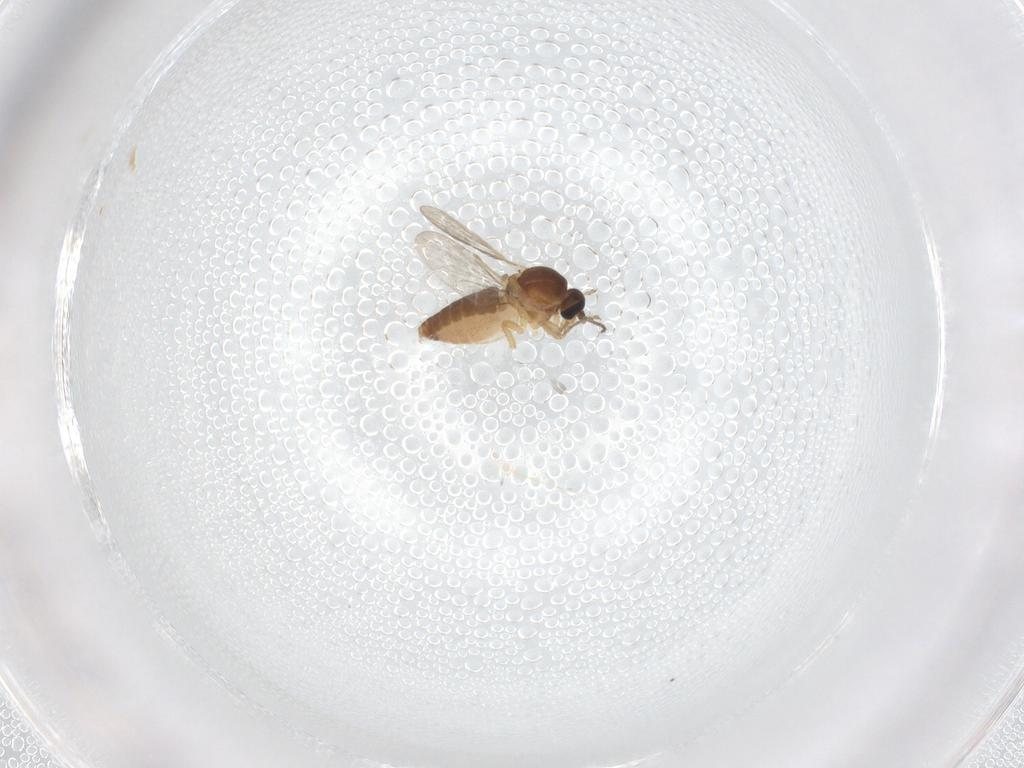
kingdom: Animalia
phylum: Arthropoda
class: Insecta
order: Diptera
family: Ceratopogonidae
